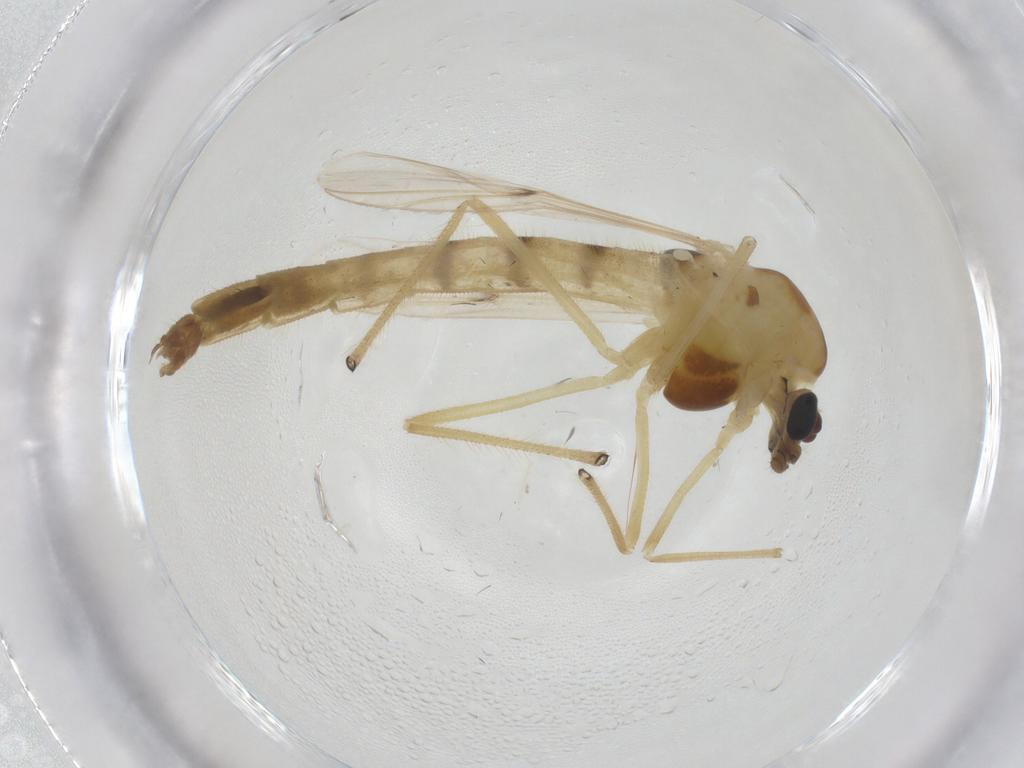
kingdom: Animalia
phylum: Arthropoda
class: Insecta
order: Diptera
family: Chironomidae
